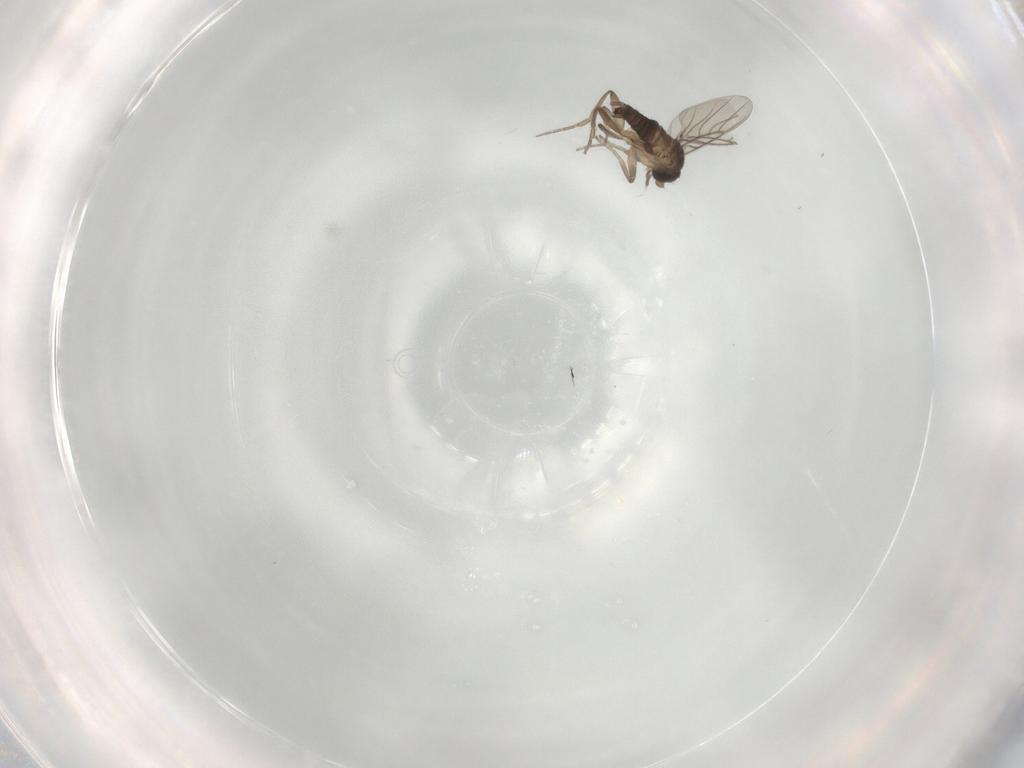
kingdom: Animalia
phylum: Arthropoda
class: Insecta
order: Diptera
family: Phoridae
